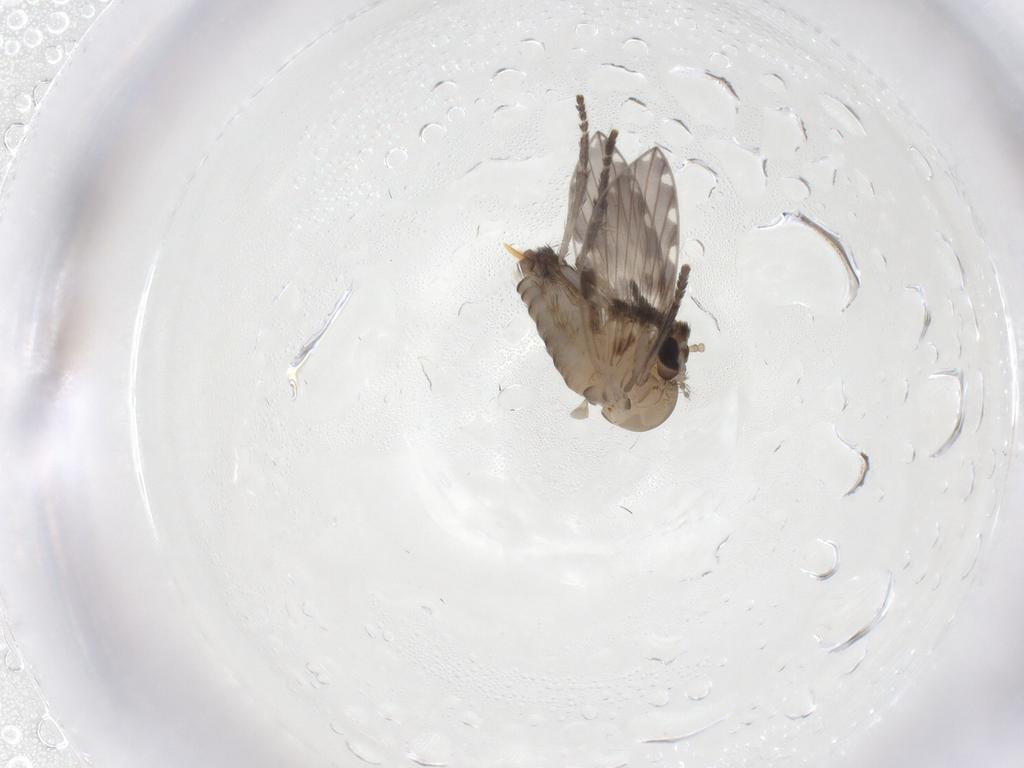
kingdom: Animalia
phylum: Arthropoda
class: Insecta
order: Diptera
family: Psychodidae
